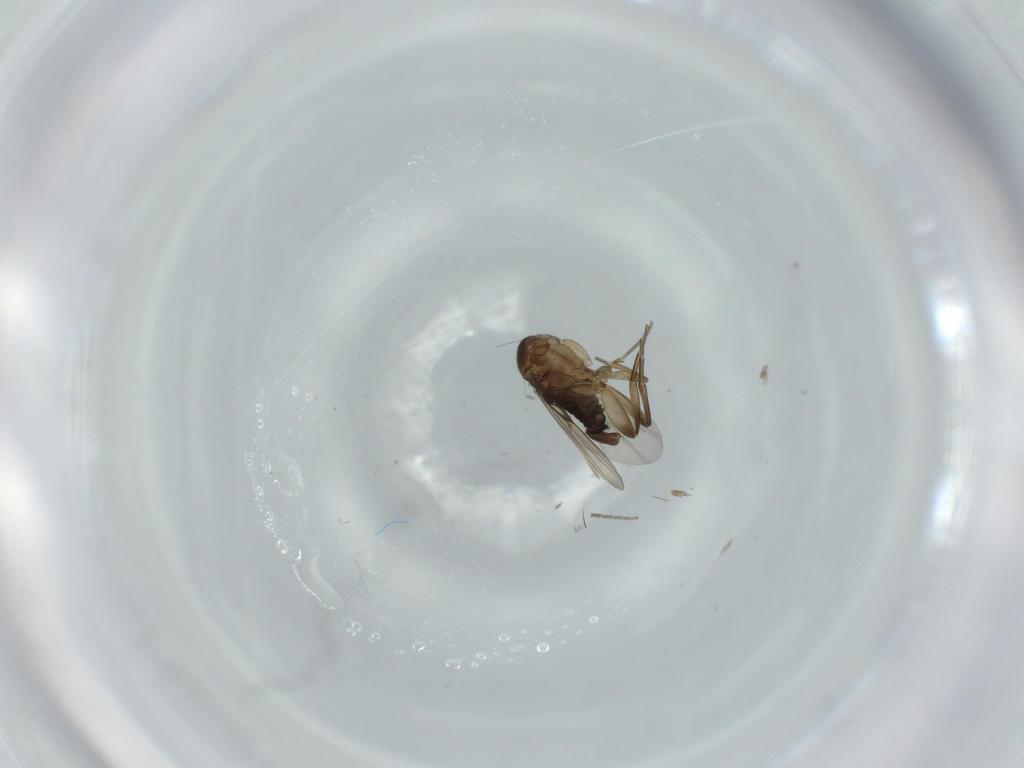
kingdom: Animalia
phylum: Arthropoda
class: Insecta
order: Diptera
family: Phoridae
